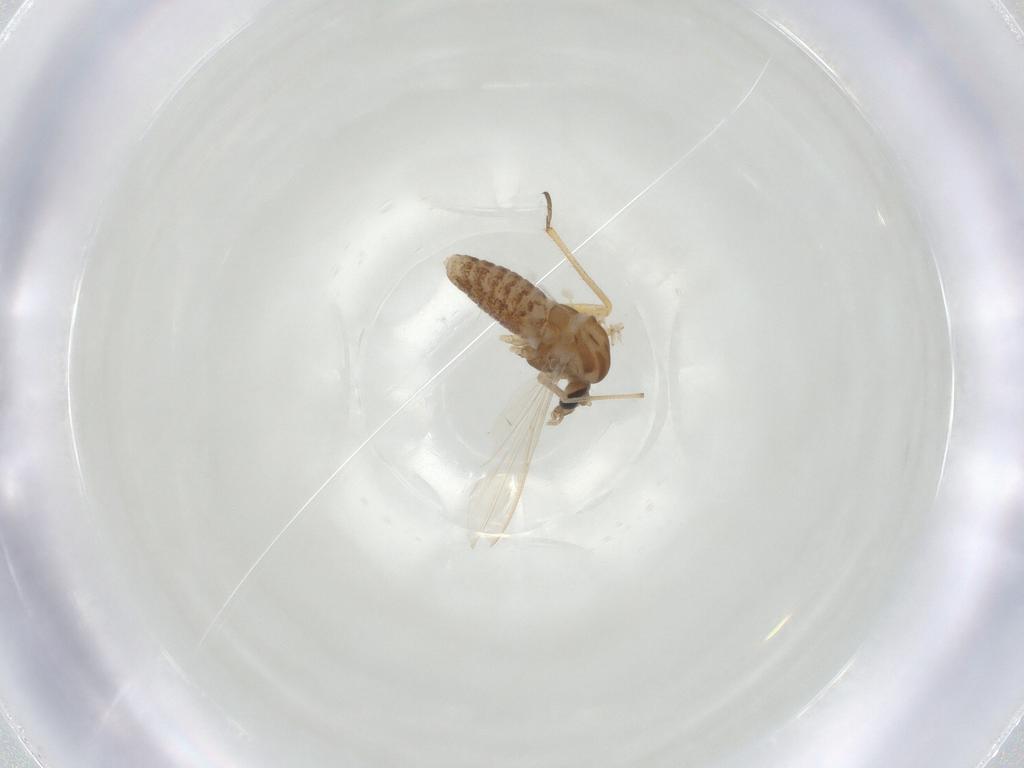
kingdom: Animalia
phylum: Arthropoda
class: Insecta
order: Diptera
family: Chironomidae
